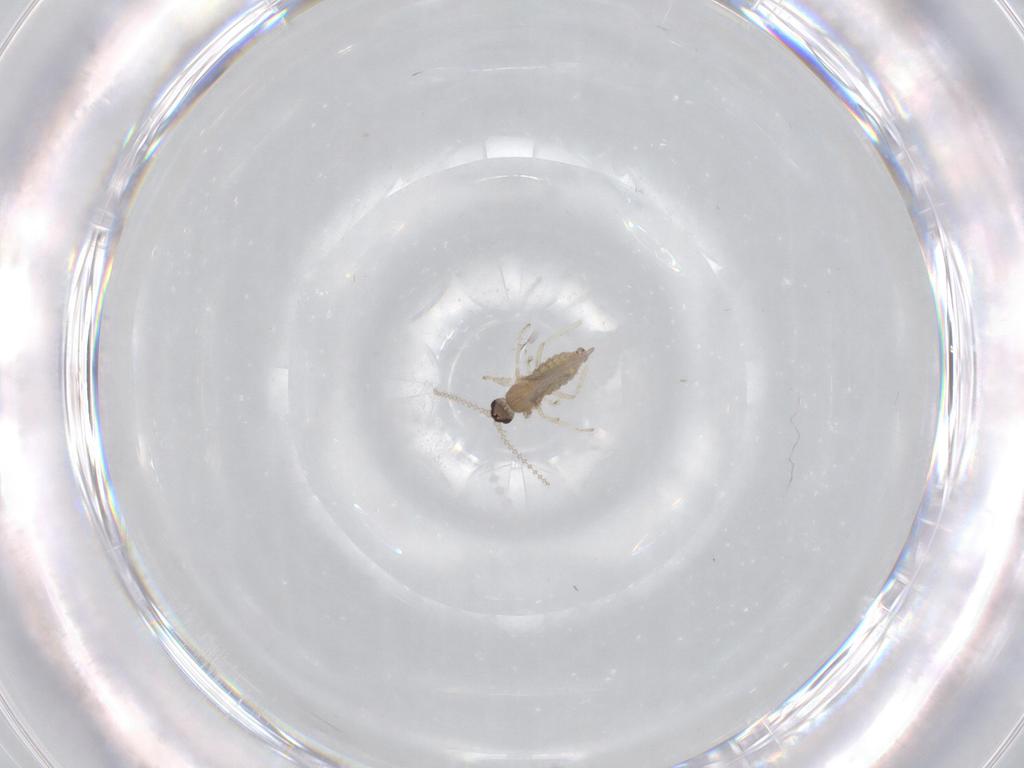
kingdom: Animalia
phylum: Arthropoda
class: Insecta
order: Diptera
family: Cecidomyiidae
